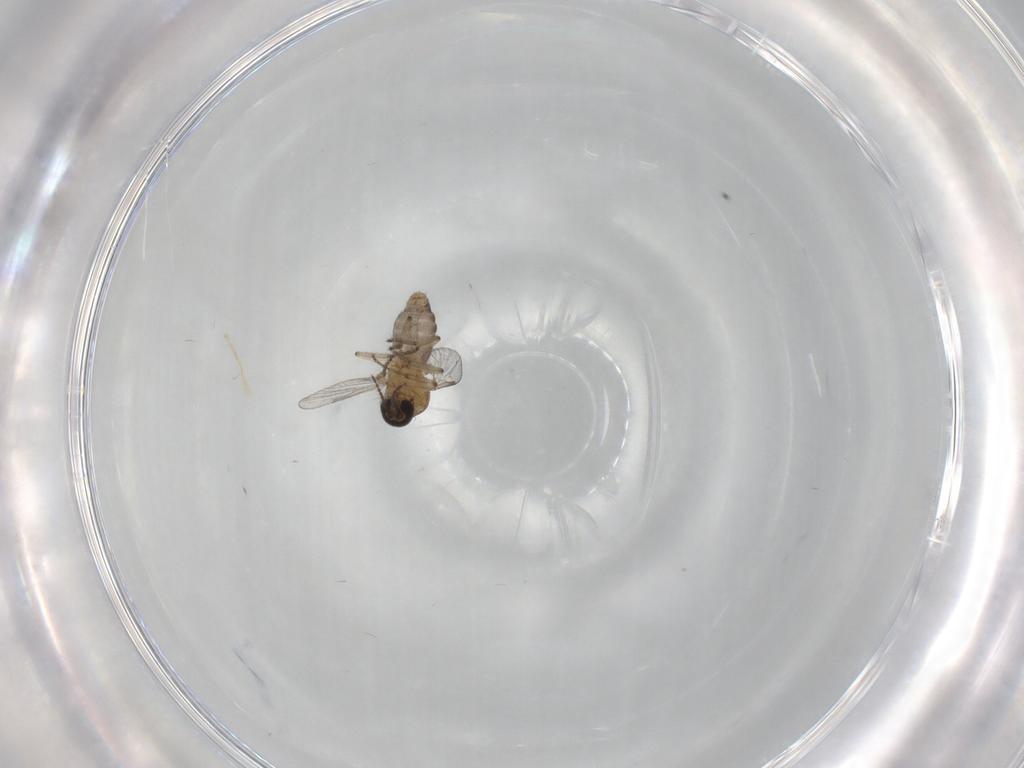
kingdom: Animalia
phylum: Arthropoda
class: Insecta
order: Diptera
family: Ceratopogonidae
